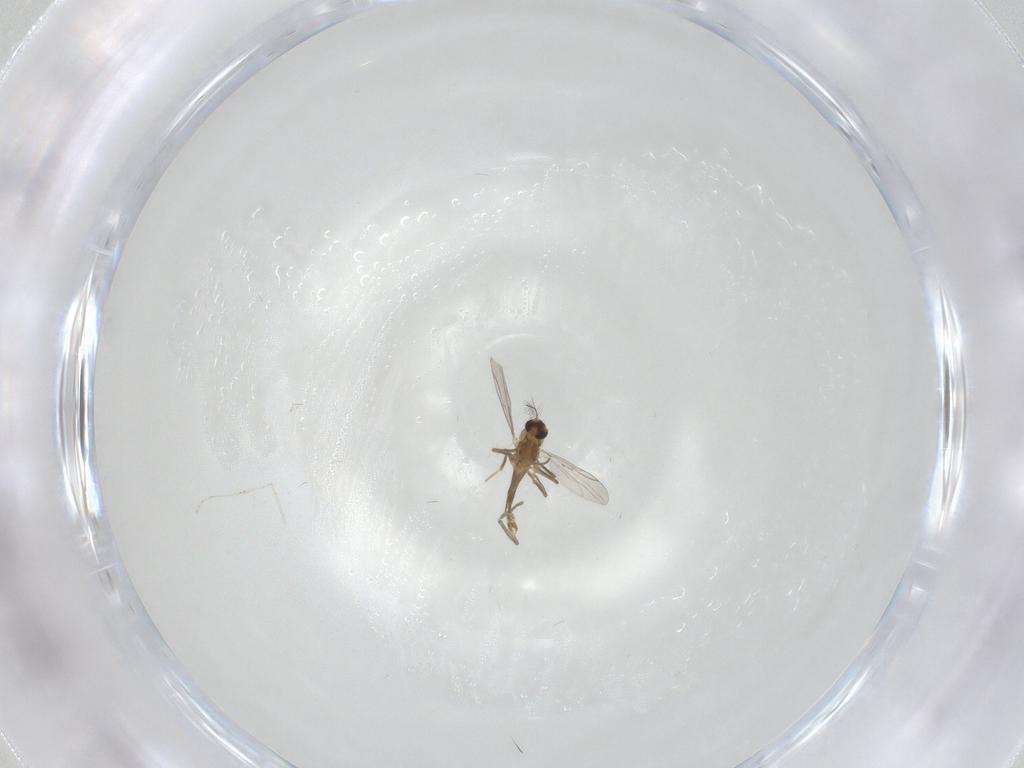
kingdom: Animalia
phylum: Arthropoda
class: Insecta
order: Diptera
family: Chironomidae
